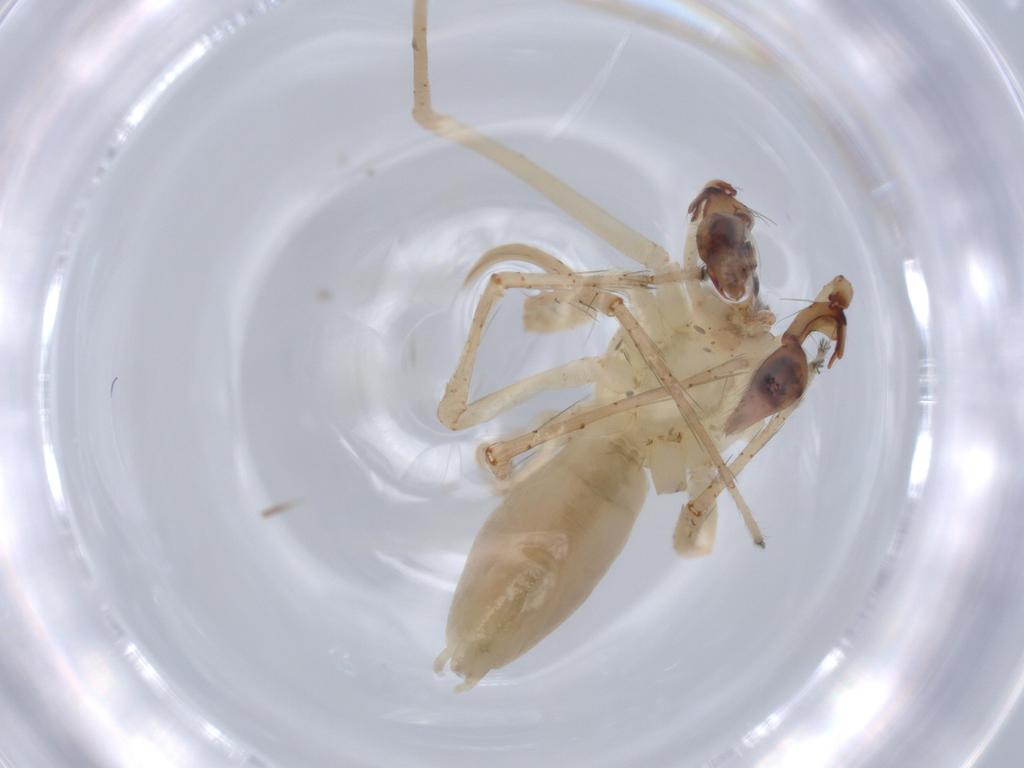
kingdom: Animalia
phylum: Arthropoda
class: Arachnida
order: Araneae
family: Anyphaenidae
